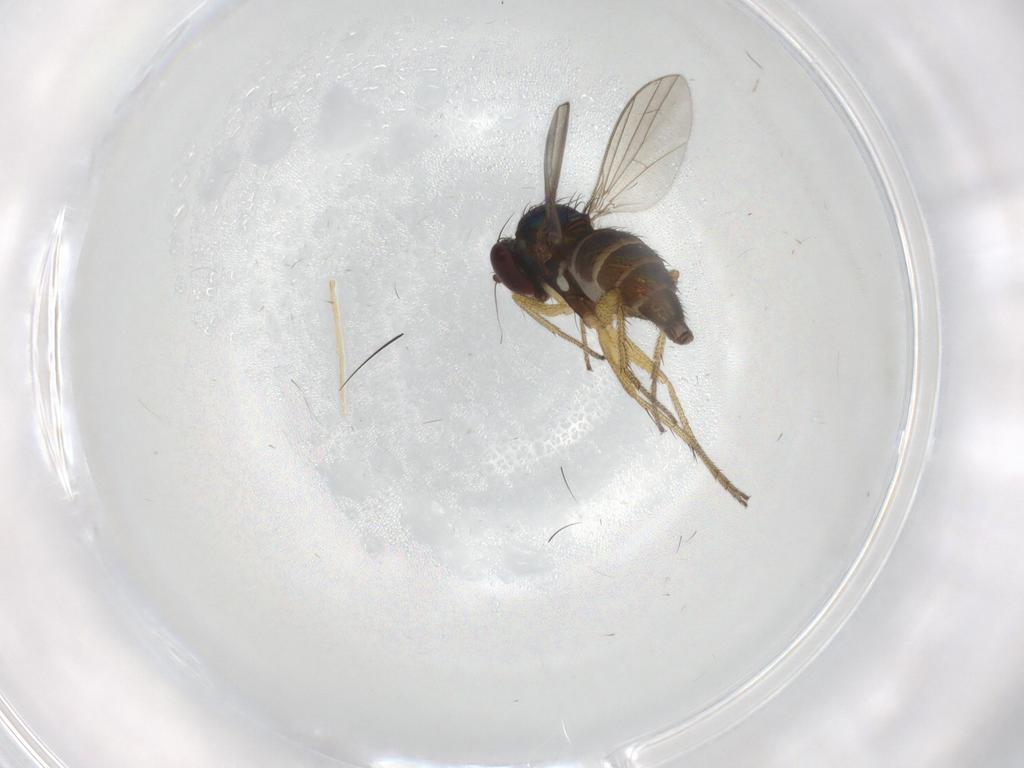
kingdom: Animalia
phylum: Arthropoda
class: Insecta
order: Diptera
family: Dolichopodidae
